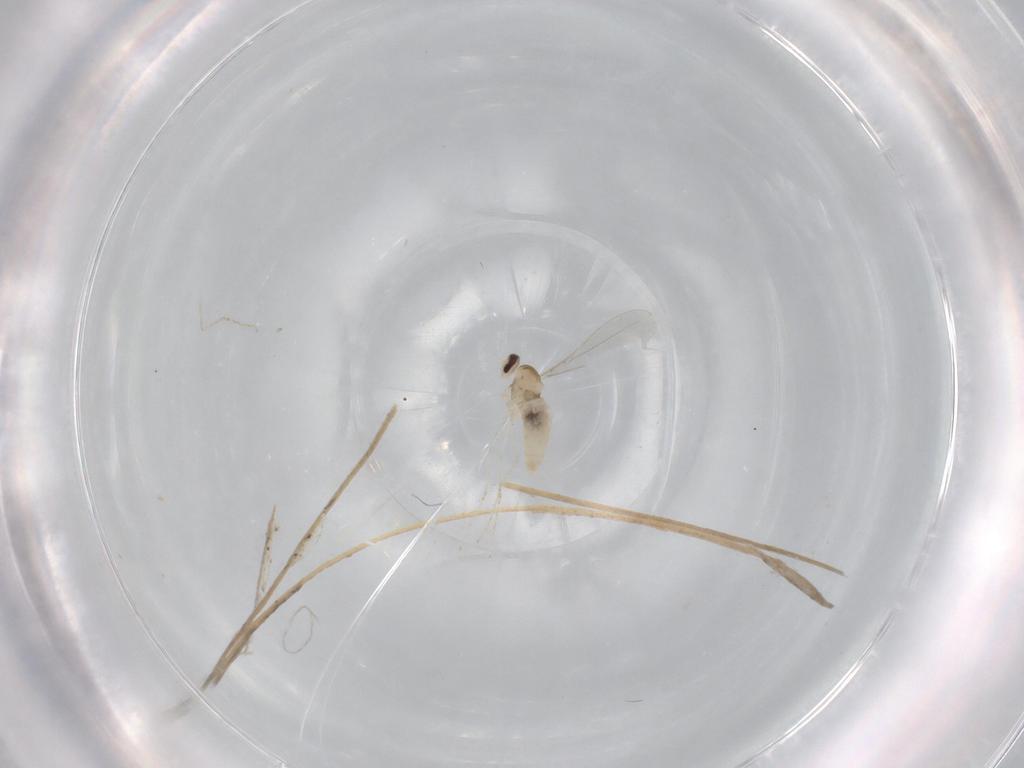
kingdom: Animalia
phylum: Arthropoda
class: Insecta
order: Diptera
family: Cecidomyiidae
